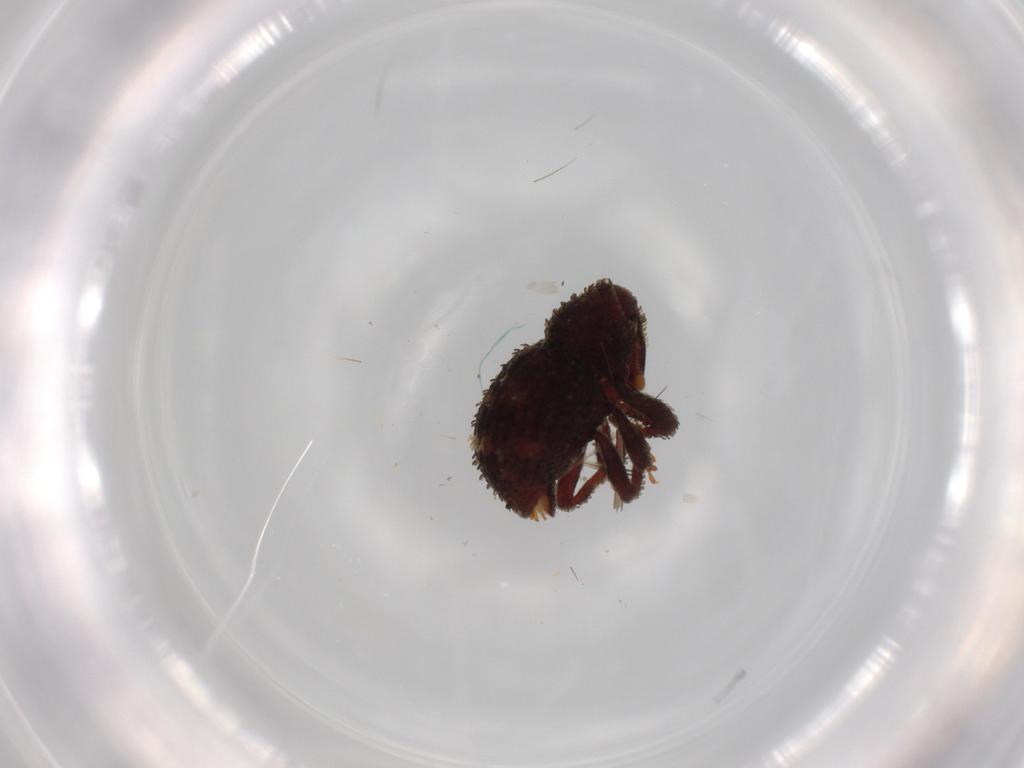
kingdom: Animalia
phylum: Arthropoda
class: Insecta
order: Coleoptera
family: Curculionidae
